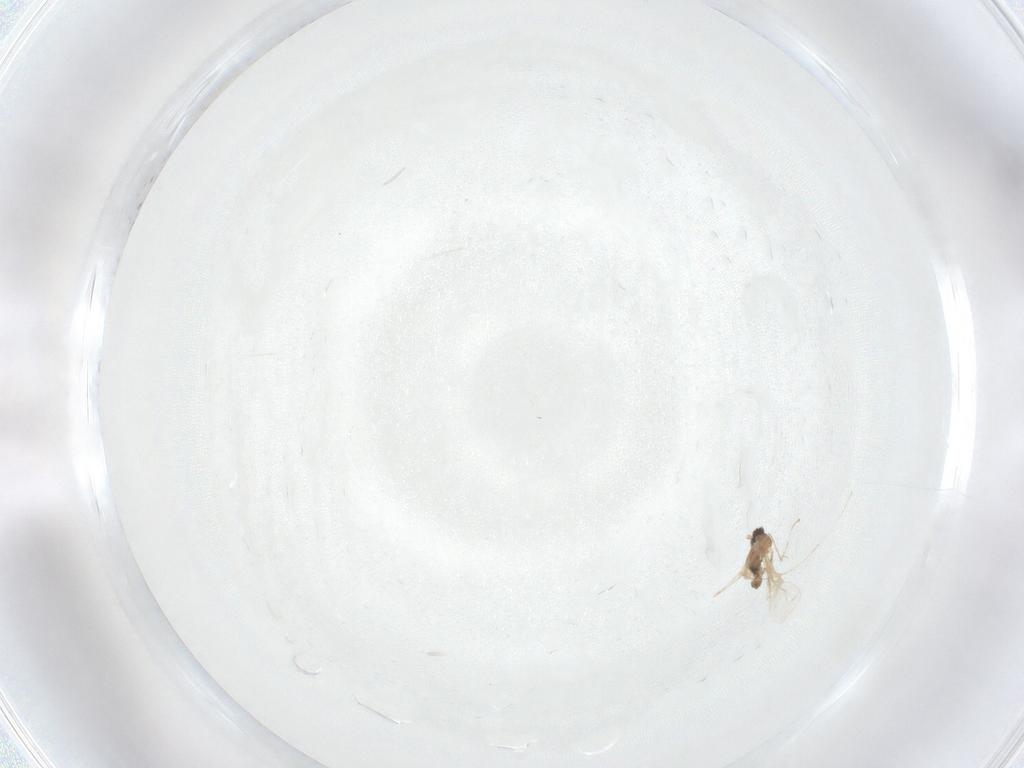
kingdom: Animalia
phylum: Arthropoda
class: Insecta
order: Diptera
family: Cecidomyiidae
